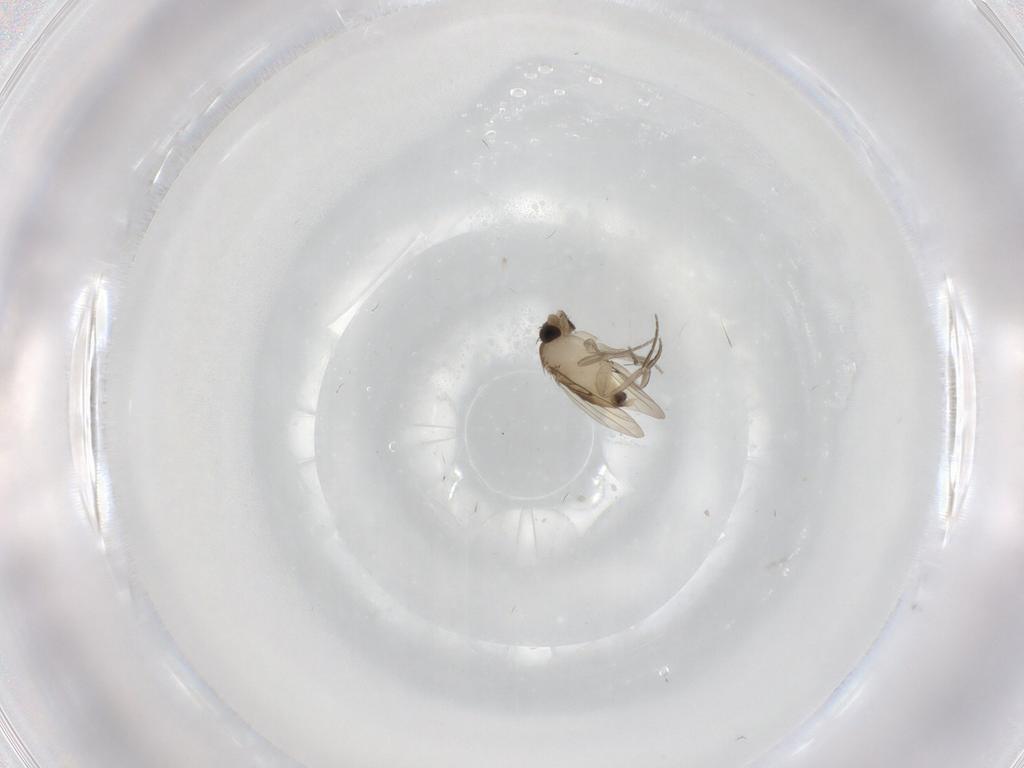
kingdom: Animalia
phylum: Arthropoda
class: Insecta
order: Diptera
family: Phoridae
